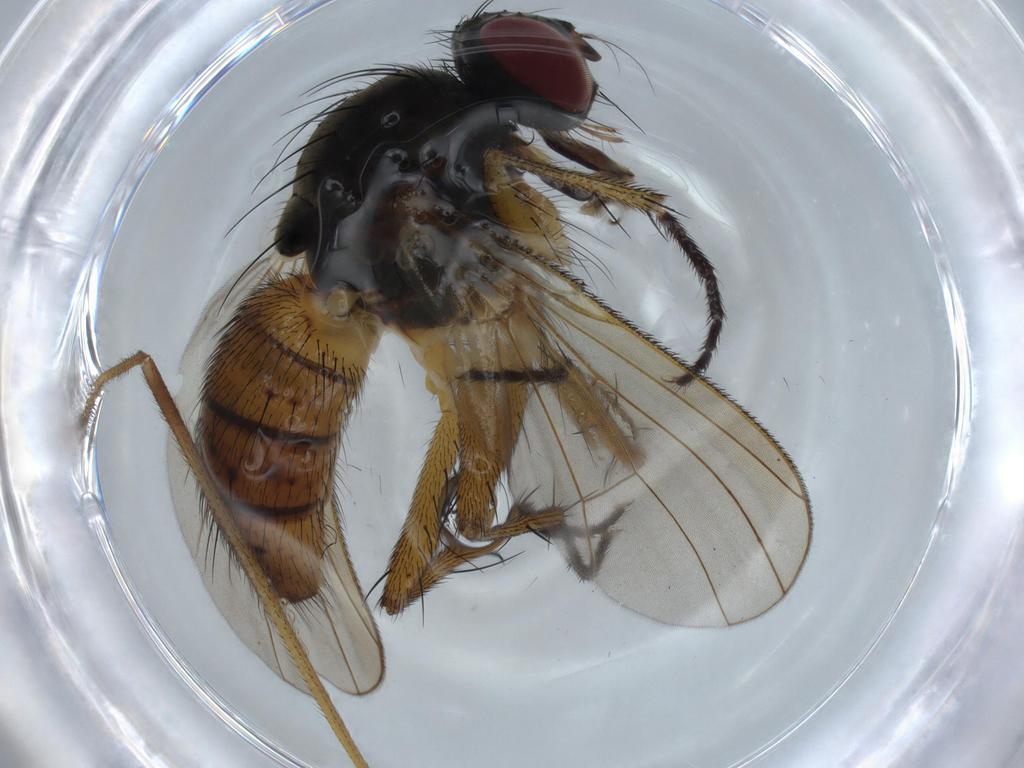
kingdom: Animalia
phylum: Arthropoda
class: Insecta
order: Diptera
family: Limoniidae
